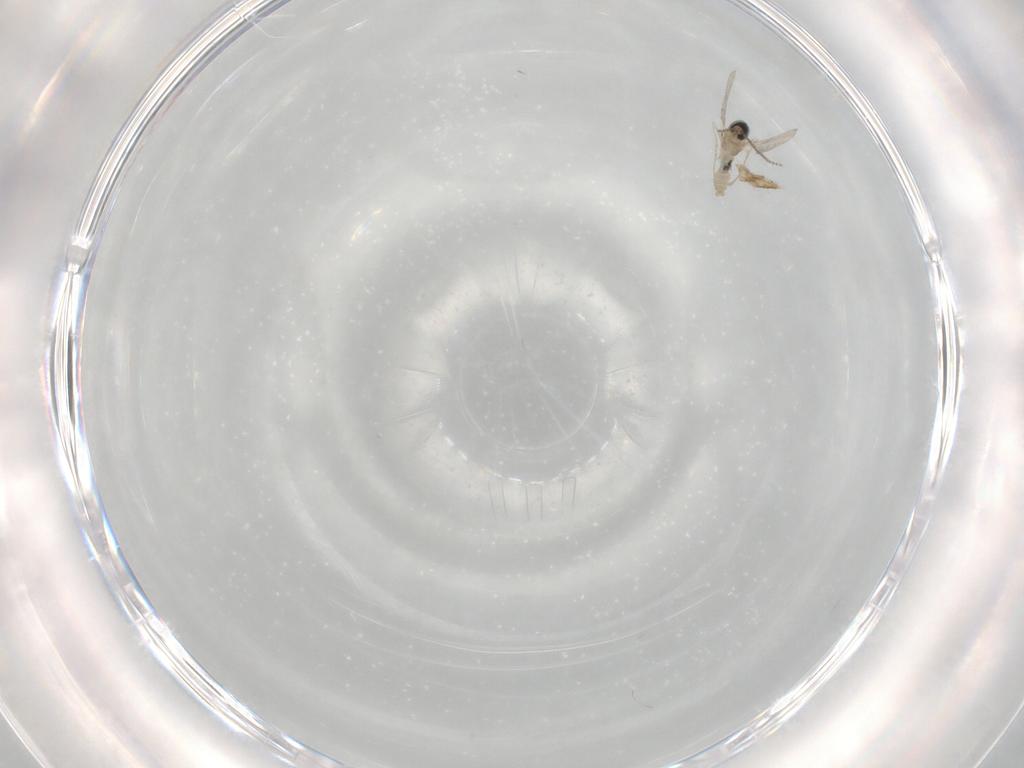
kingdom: Animalia
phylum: Arthropoda
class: Insecta
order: Diptera
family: Cecidomyiidae
